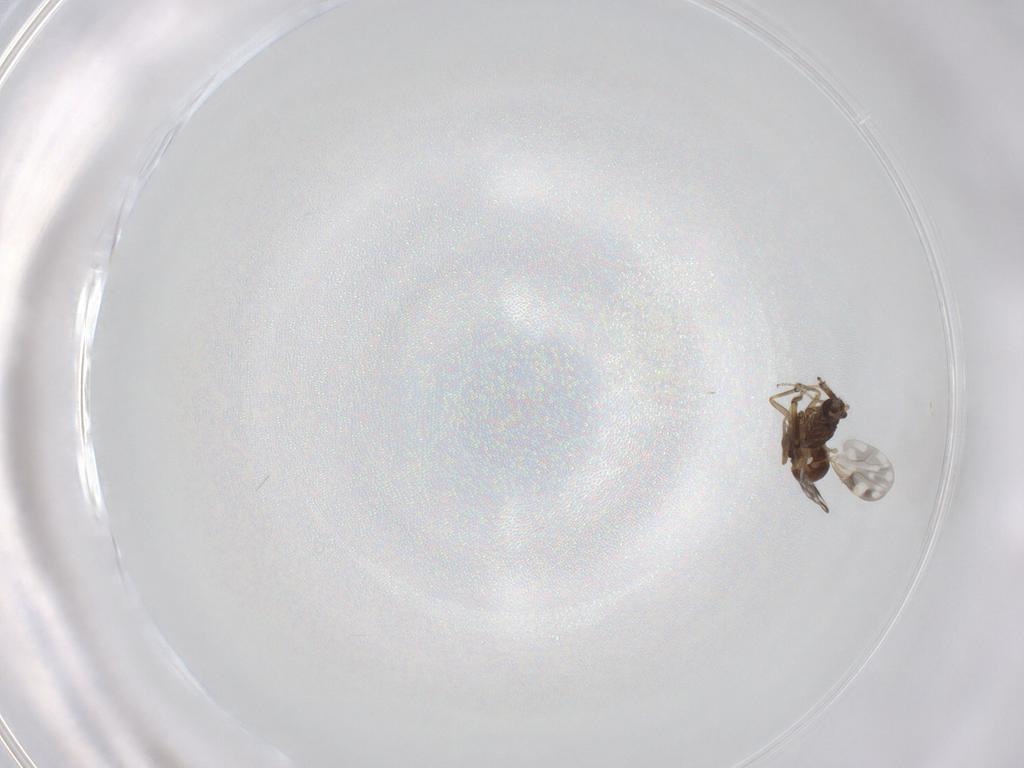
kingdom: Animalia
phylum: Arthropoda
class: Insecta
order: Diptera
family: Ceratopogonidae
